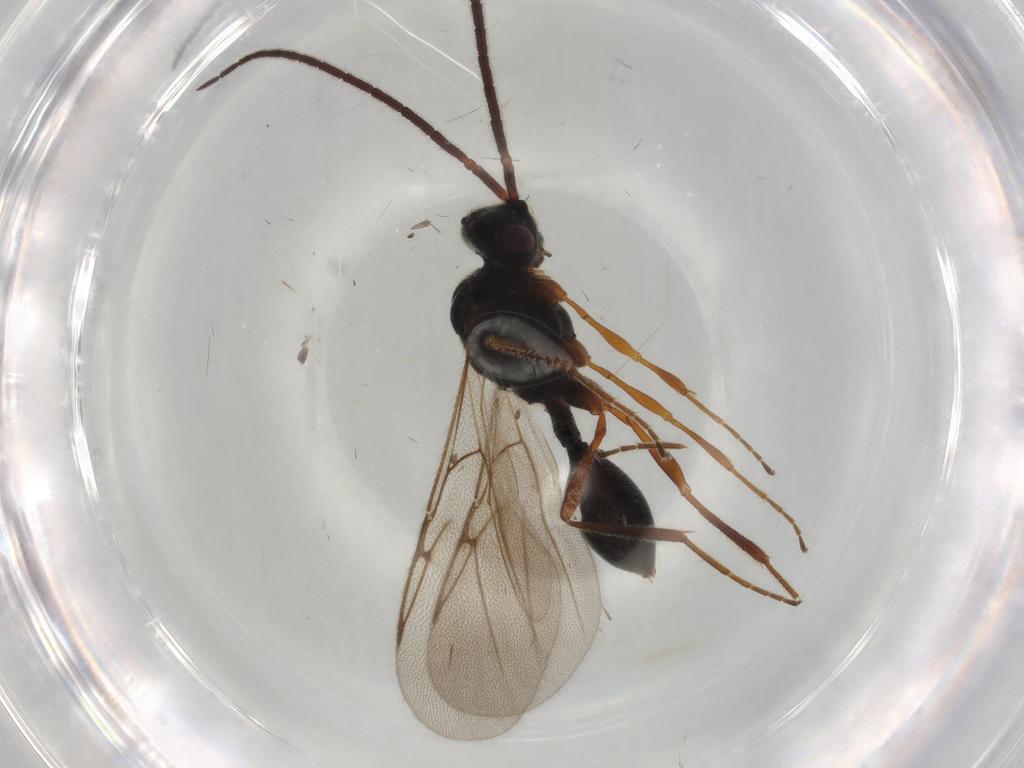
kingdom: Animalia
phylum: Arthropoda
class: Insecta
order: Hymenoptera
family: Diapriidae
